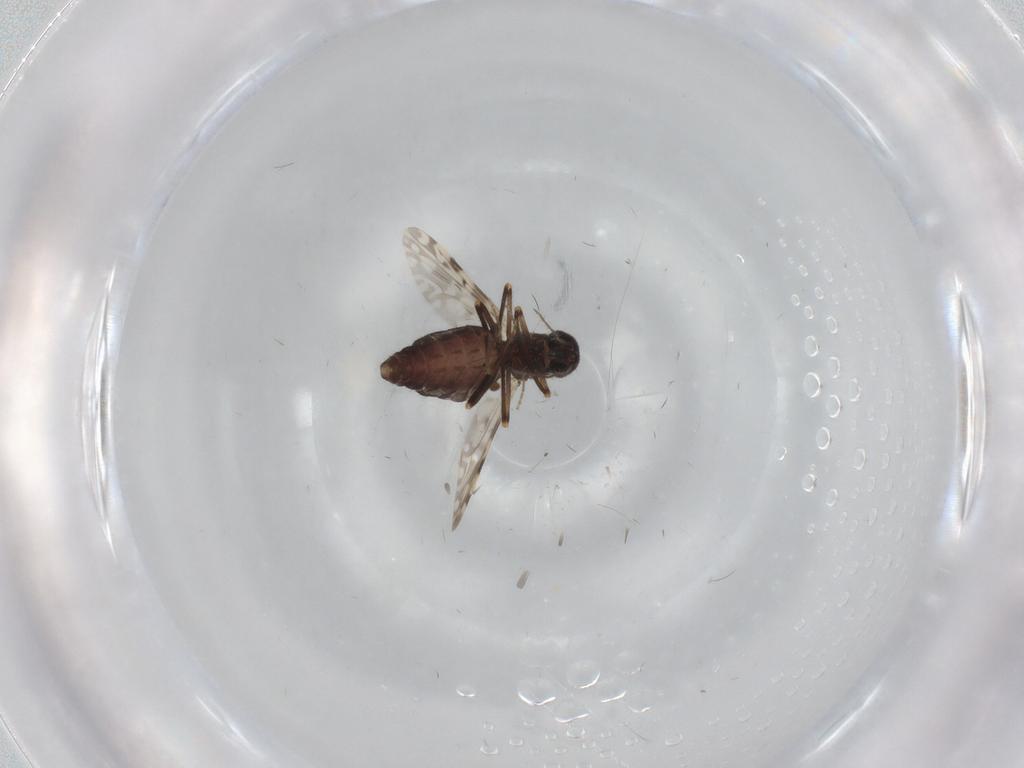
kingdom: Animalia
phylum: Arthropoda
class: Insecta
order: Diptera
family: Ceratopogonidae
